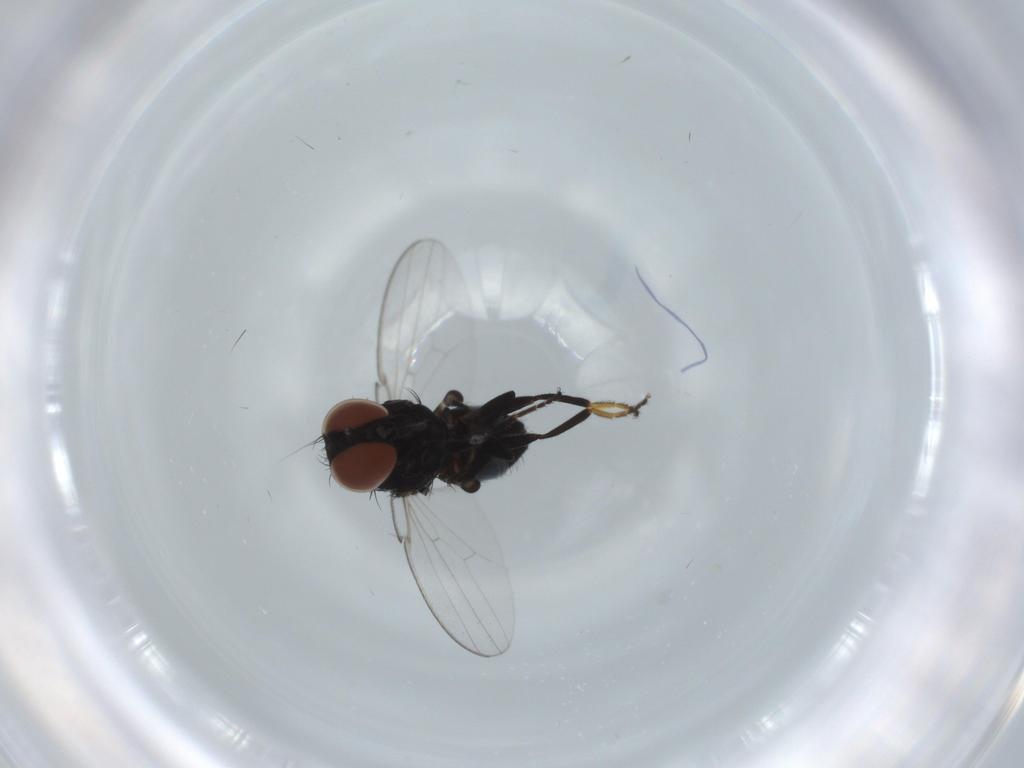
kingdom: Animalia
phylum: Arthropoda
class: Insecta
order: Diptera
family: Milichiidae
